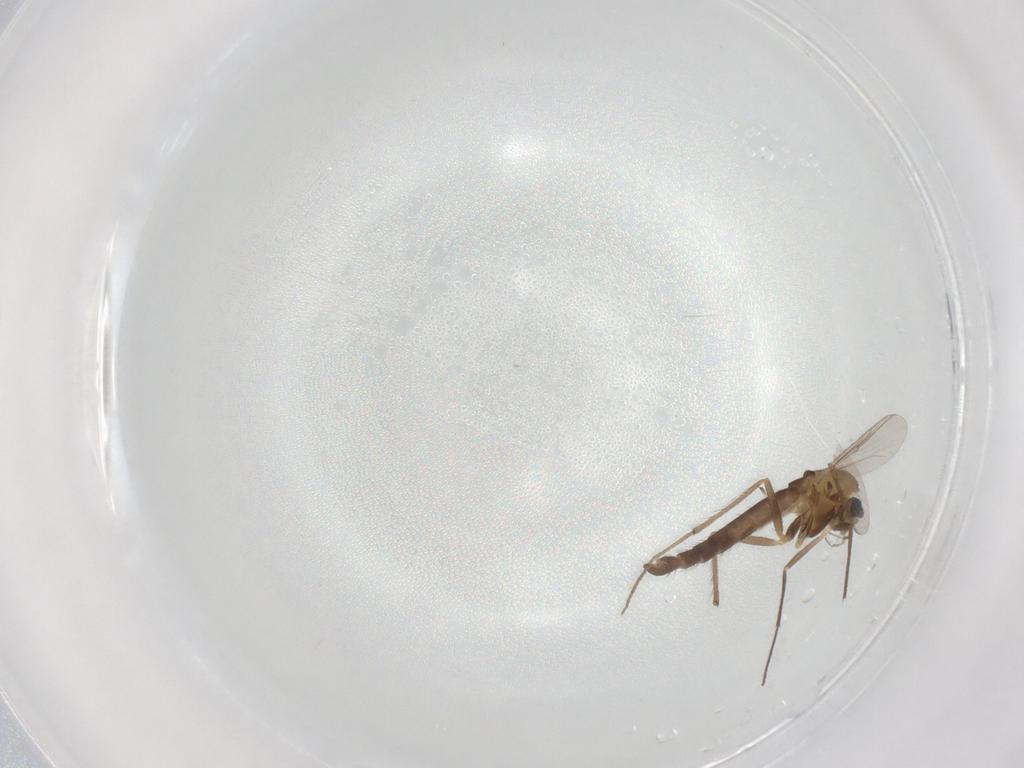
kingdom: Animalia
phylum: Arthropoda
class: Insecta
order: Diptera
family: Chironomidae
